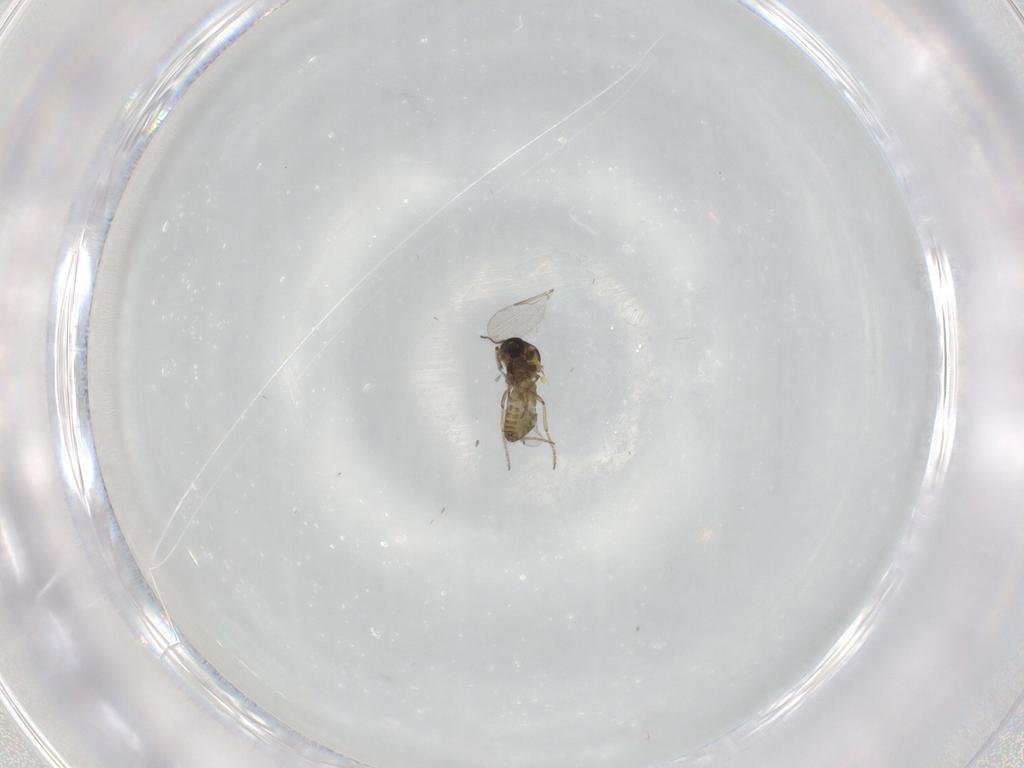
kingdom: Animalia
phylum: Arthropoda
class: Insecta
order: Diptera
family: Ceratopogonidae
